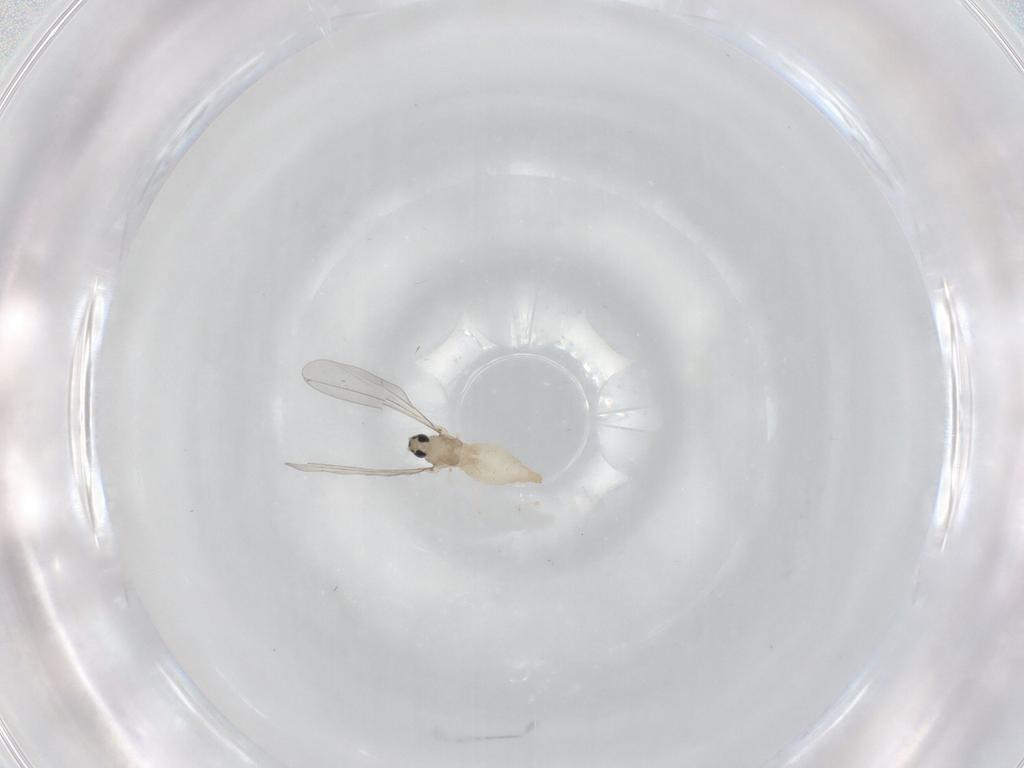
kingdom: Animalia
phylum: Arthropoda
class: Insecta
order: Diptera
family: Cecidomyiidae
